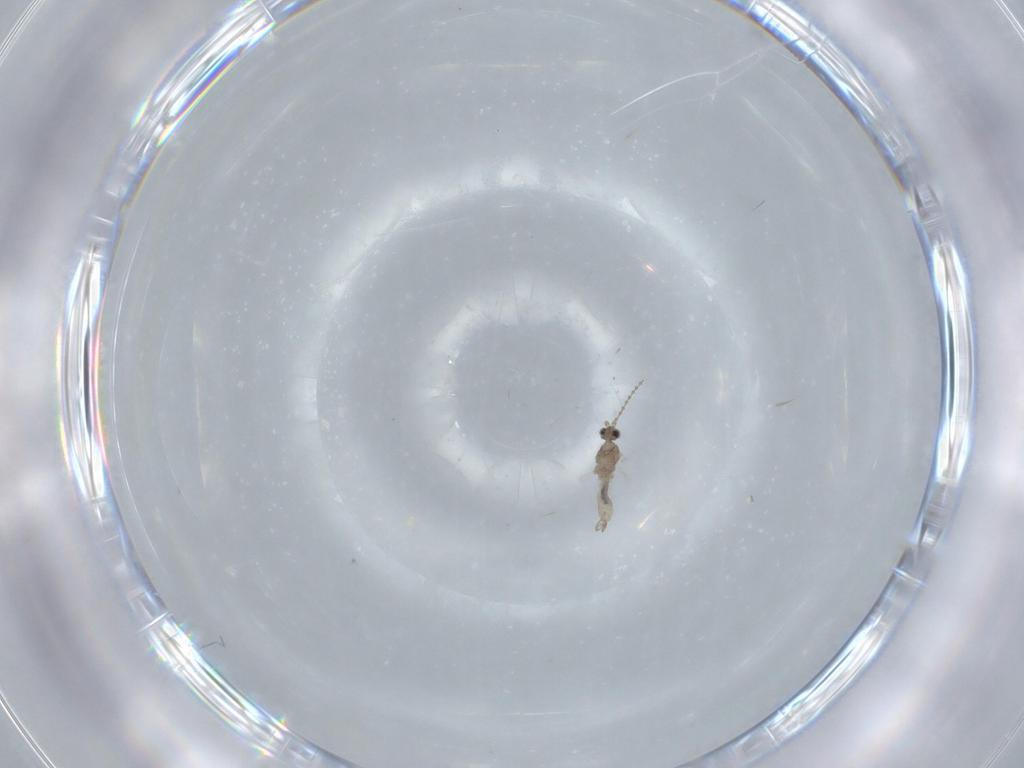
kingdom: Animalia
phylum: Arthropoda
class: Insecta
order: Diptera
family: Cecidomyiidae
